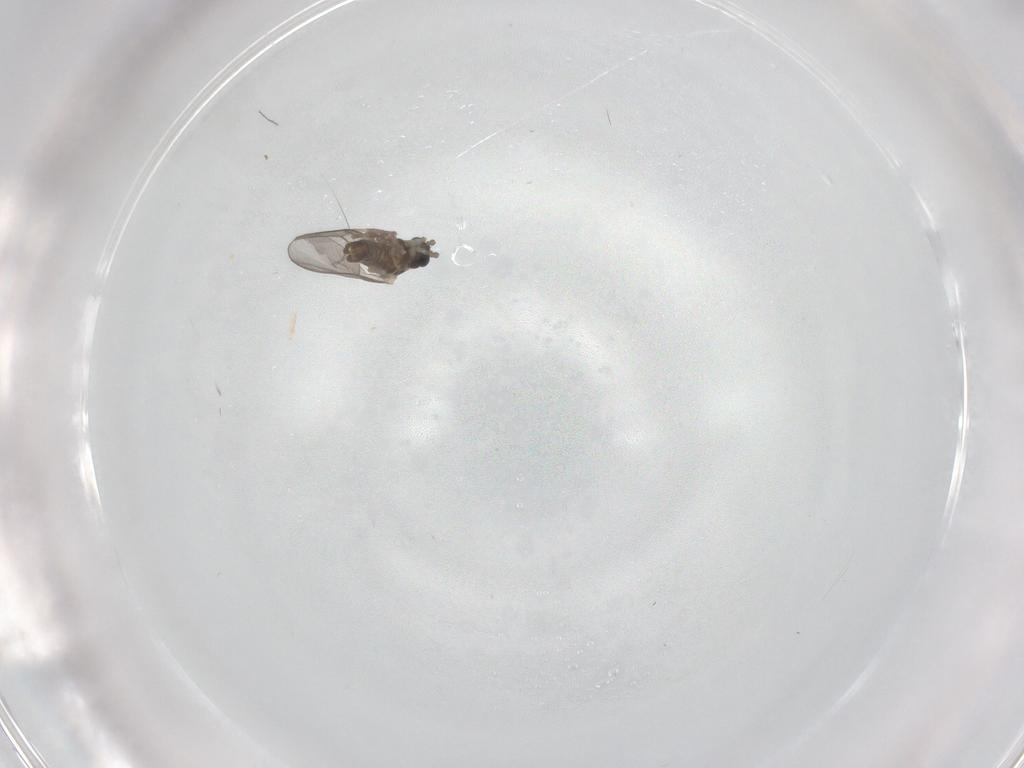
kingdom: Animalia
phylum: Arthropoda
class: Insecta
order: Diptera
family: Cecidomyiidae
